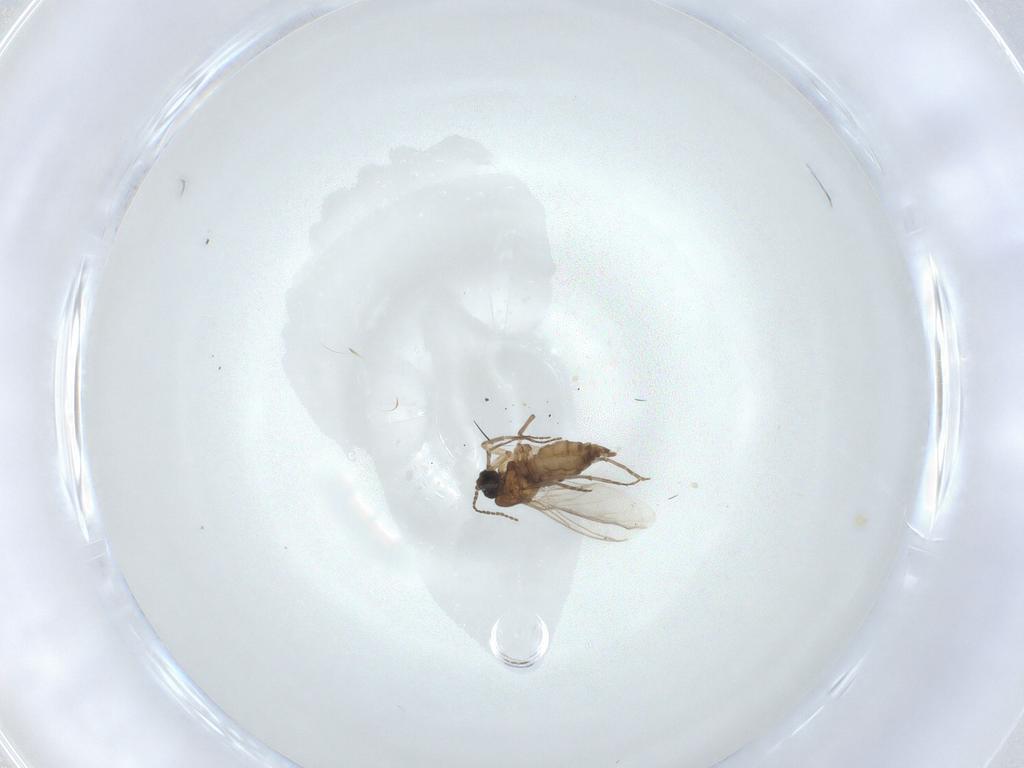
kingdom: Animalia
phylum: Arthropoda
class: Insecta
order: Diptera
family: Sciaridae
